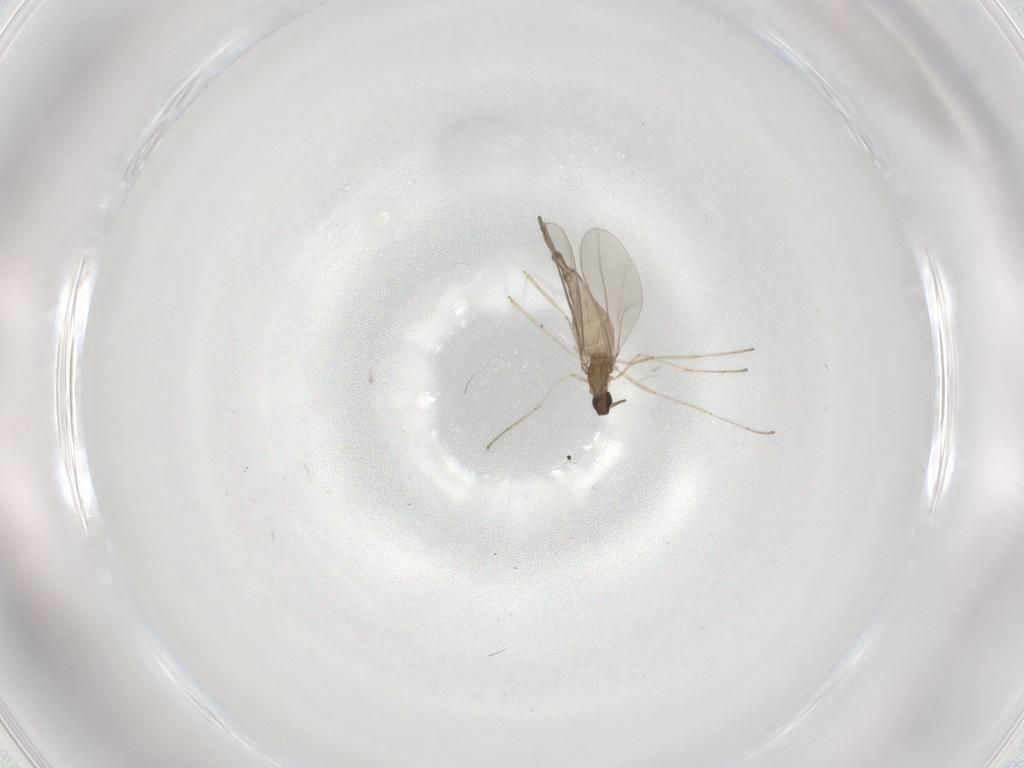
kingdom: Animalia
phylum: Arthropoda
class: Insecta
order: Diptera
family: Cecidomyiidae
